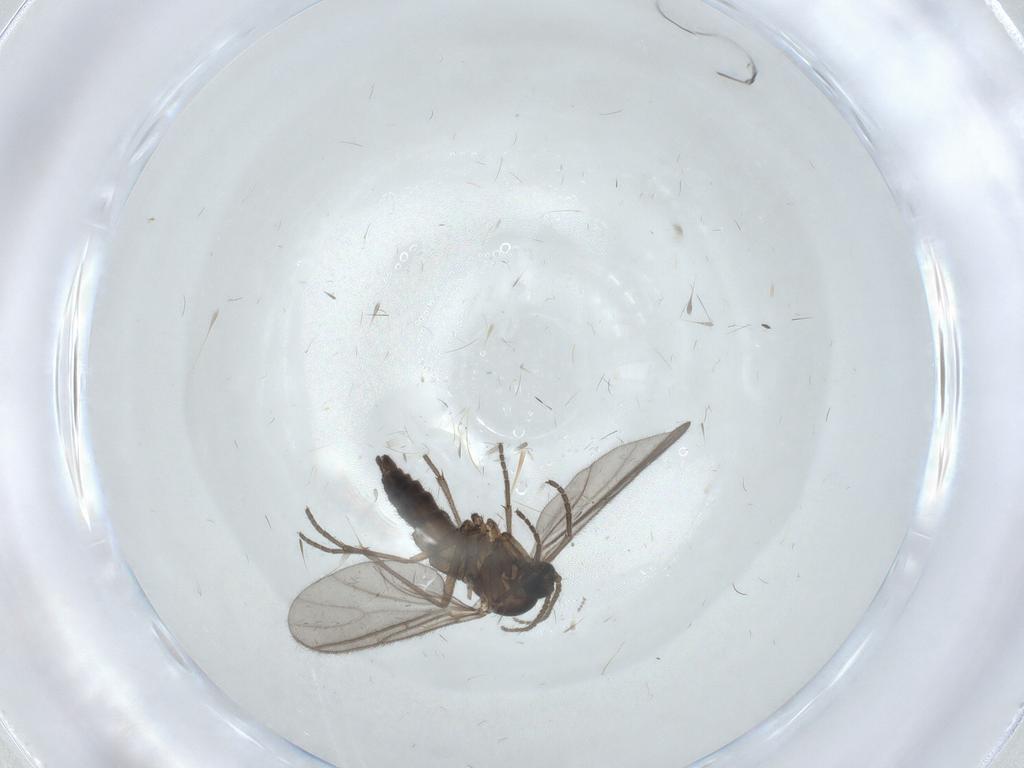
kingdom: Animalia
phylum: Arthropoda
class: Insecta
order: Diptera
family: Sciaridae
